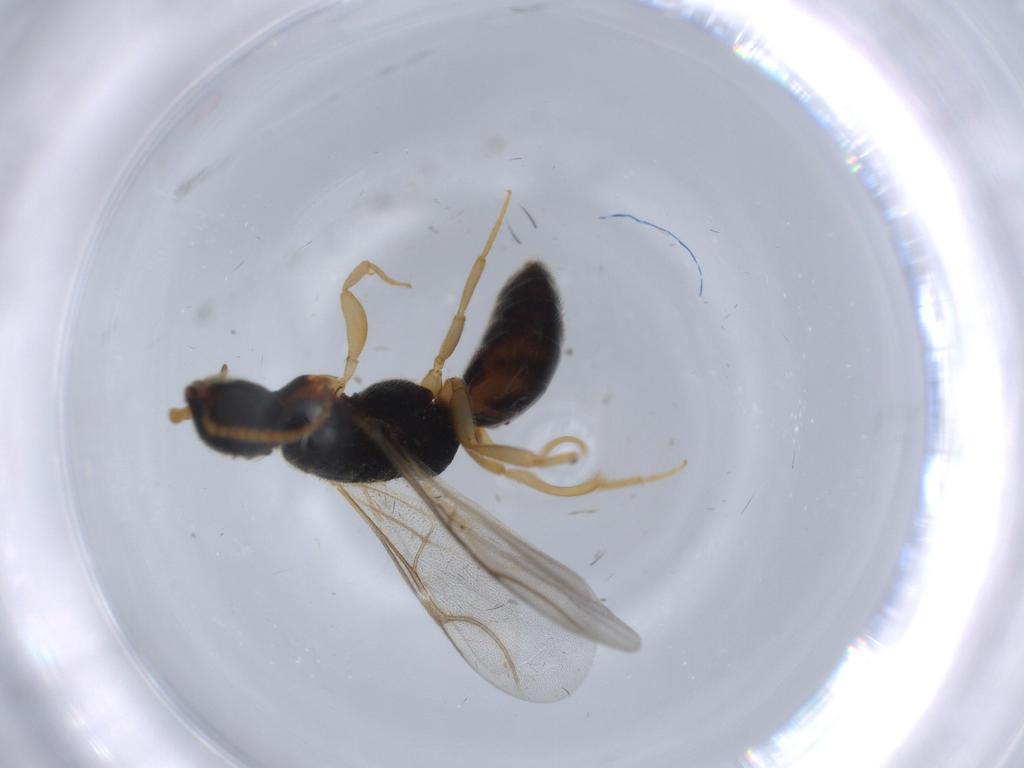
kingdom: Animalia
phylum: Arthropoda
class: Insecta
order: Hymenoptera
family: Bethylidae
